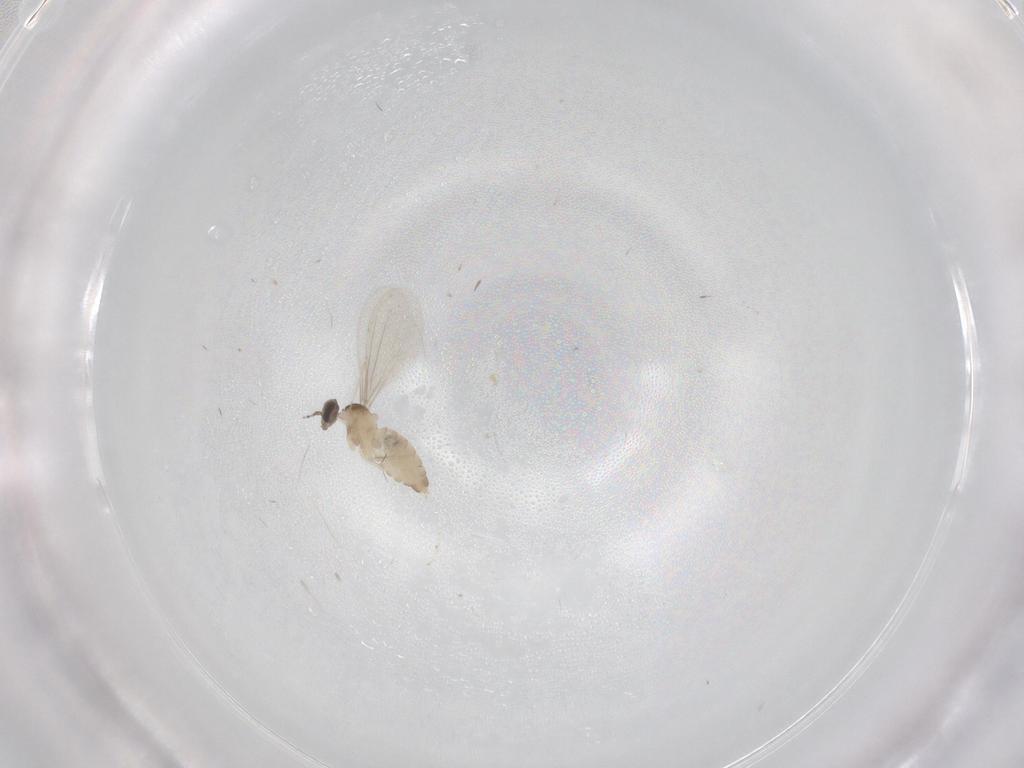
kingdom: Animalia
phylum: Arthropoda
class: Insecta
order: Diptera
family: Cecidomyiidae
